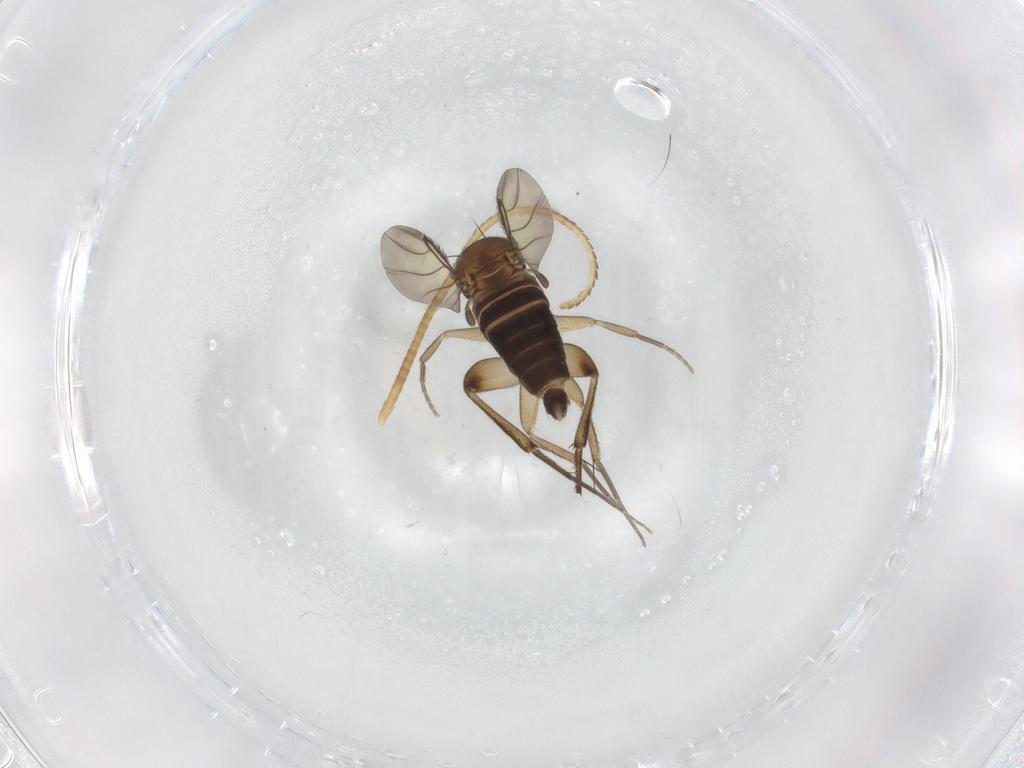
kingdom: Animalia
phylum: Arthropoda
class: Insecta
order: Diptera
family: Phoridae
